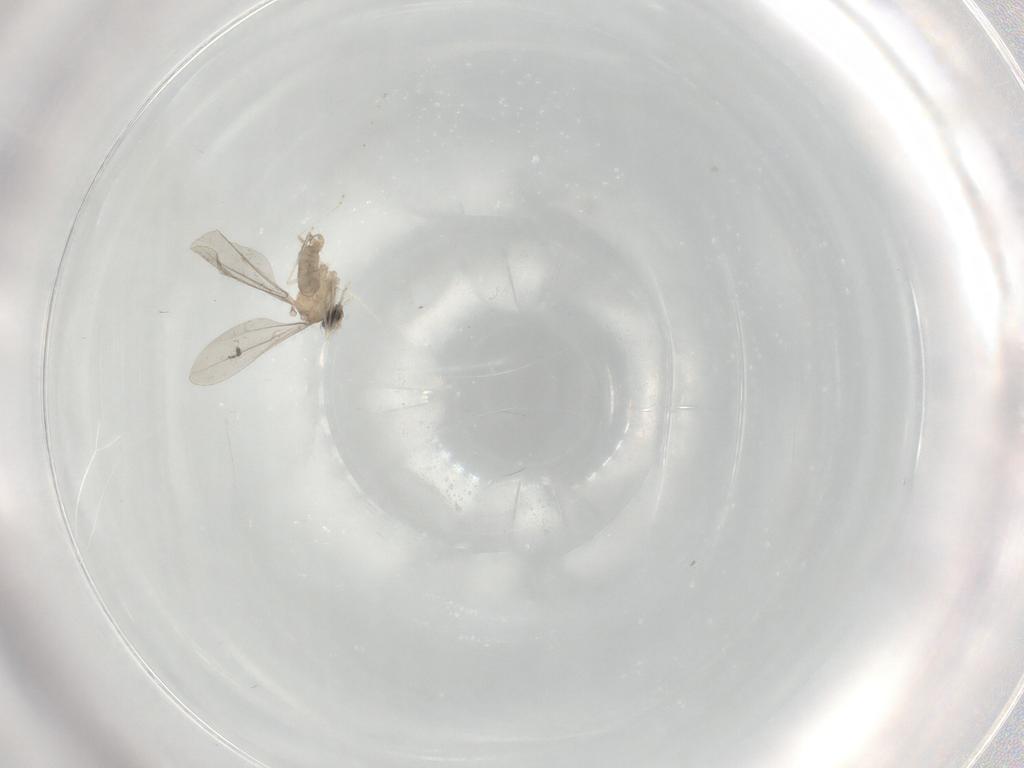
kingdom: Animalia
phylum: Arthropoda
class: Insecta
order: Diptera
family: Cecidomyiidae
